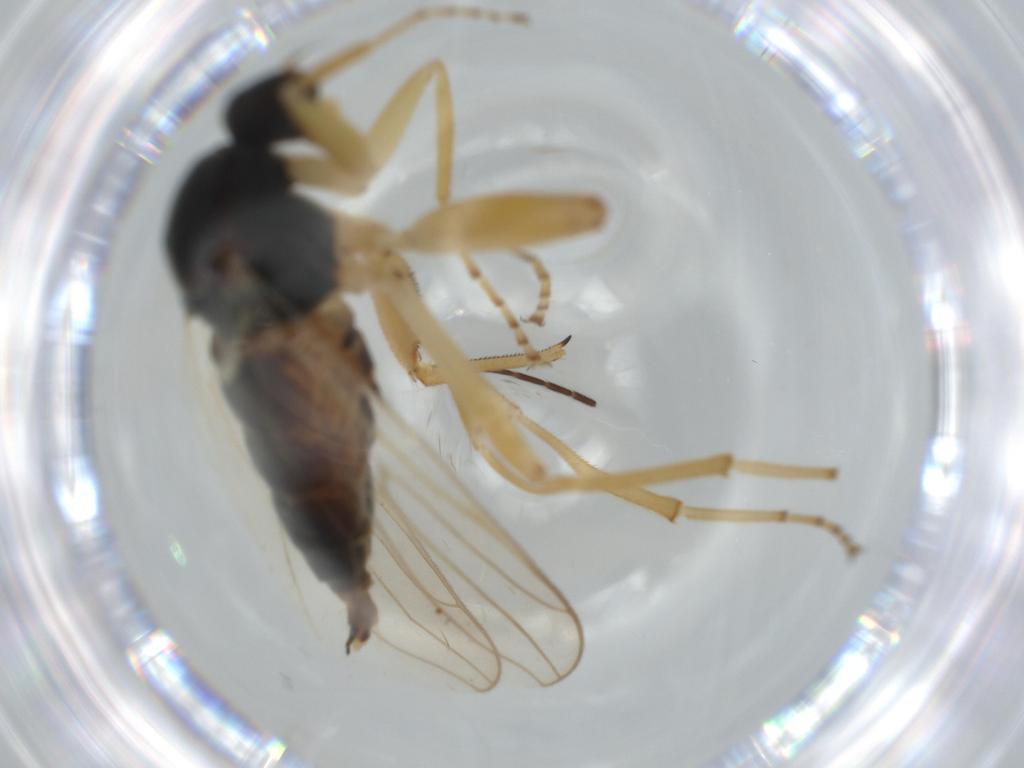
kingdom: Animalia
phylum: Arthropoda
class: Insecta
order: Diptera
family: Hybotidae
